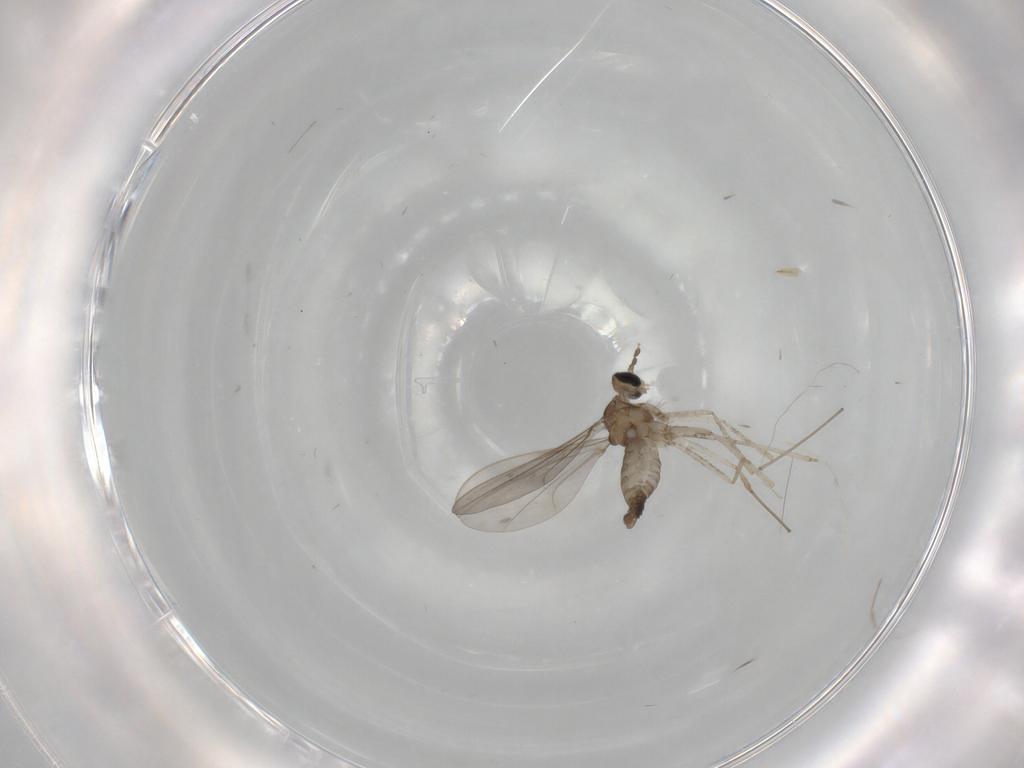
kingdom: Animalia
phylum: Arthropoda
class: Insecta
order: Diptera
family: Cecidomyiidae
